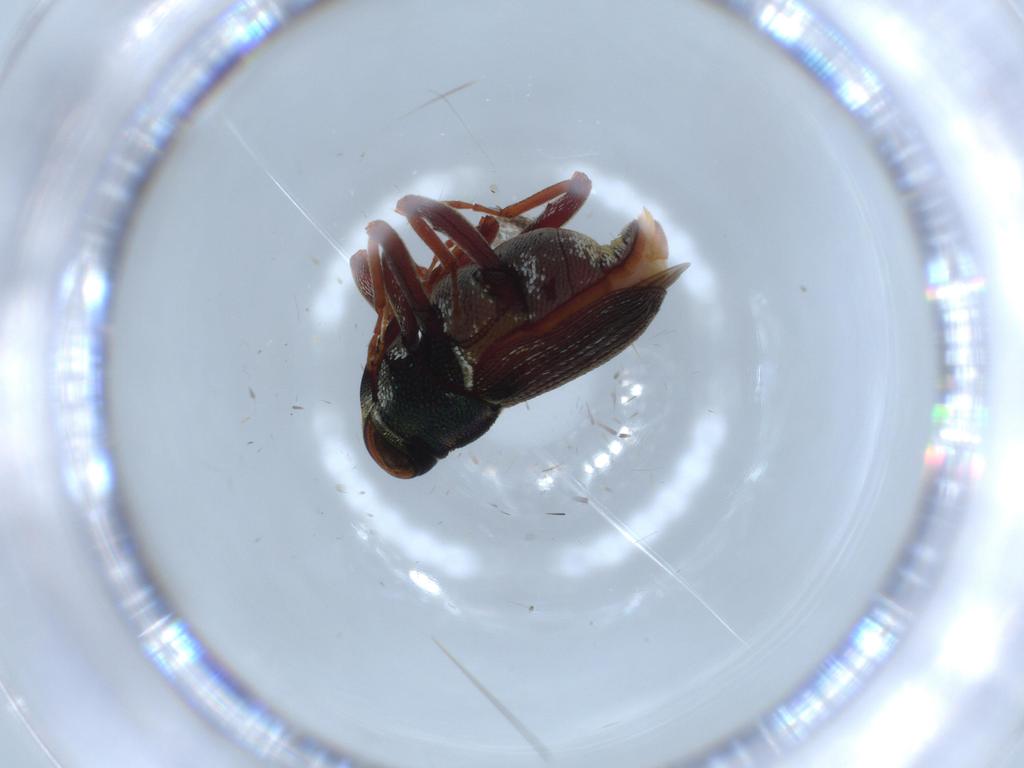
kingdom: Animalia
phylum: Arthropoda
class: Insecta
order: Coleoptera
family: Curculionidae
